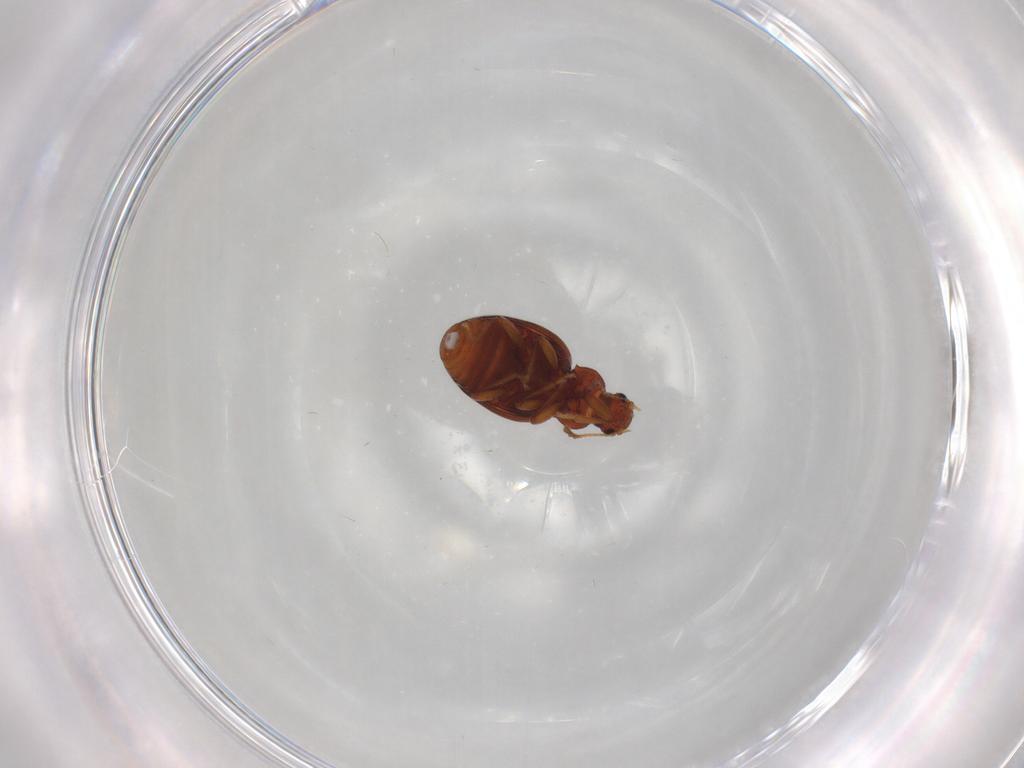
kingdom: Animalia
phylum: Arthropoda
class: Insecta
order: Coleoptera
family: Latridiidae
